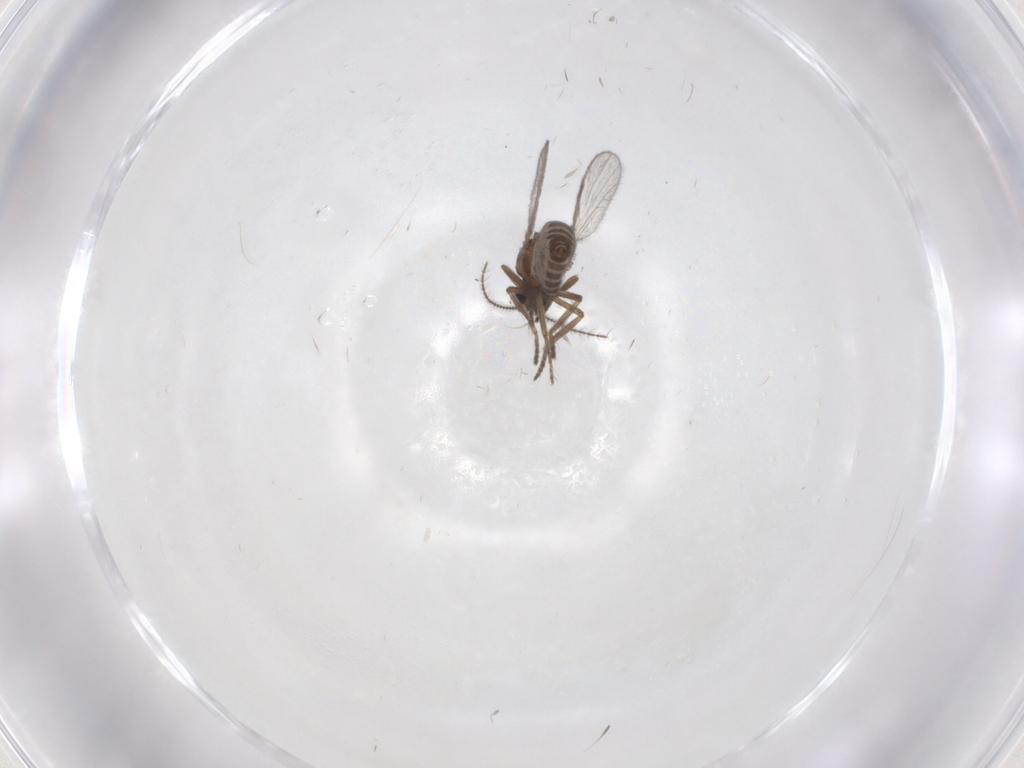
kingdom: Animalia
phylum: Arthropoda
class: Insecta
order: Diptera
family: Ceratopogonidae
